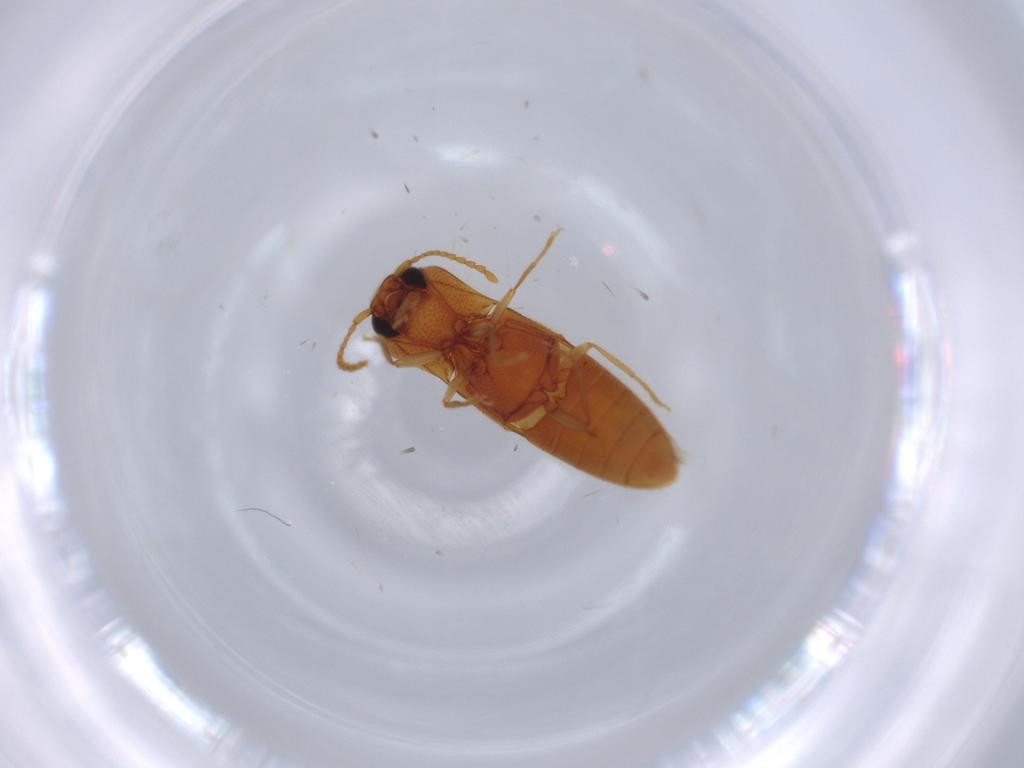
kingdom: Animalia
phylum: Arthropoda
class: Insecta
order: Coleoptera
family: Elateridae
